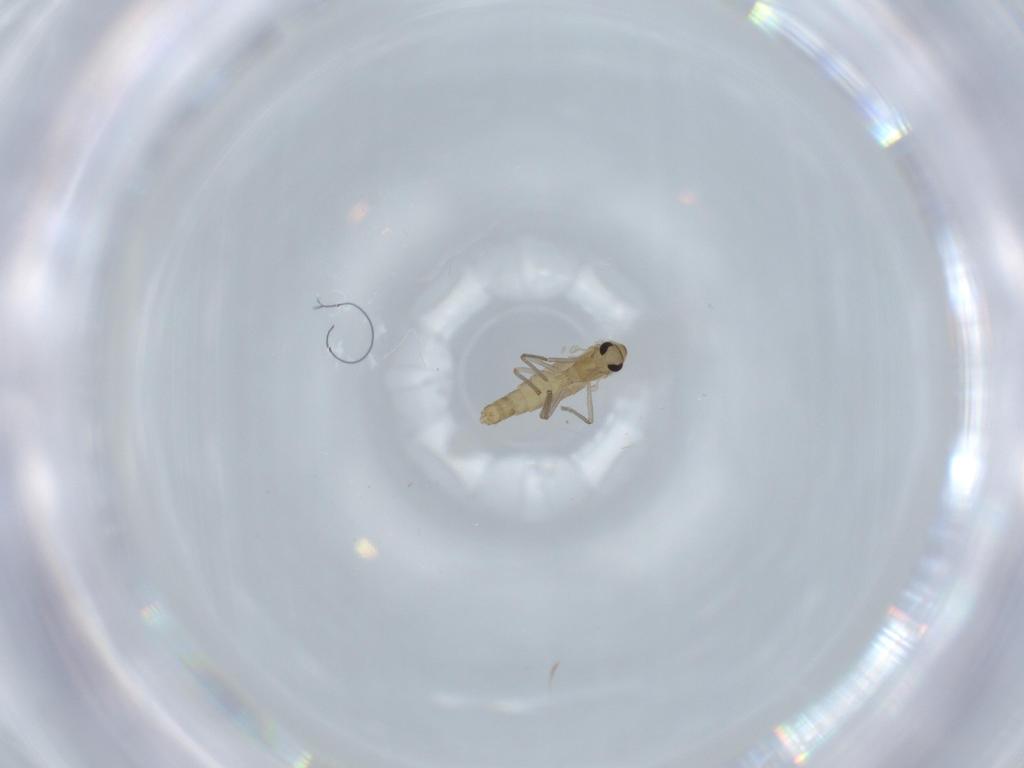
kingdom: Animalia
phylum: Arthropoda
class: Insecta
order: Diptera
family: Chironomidae
